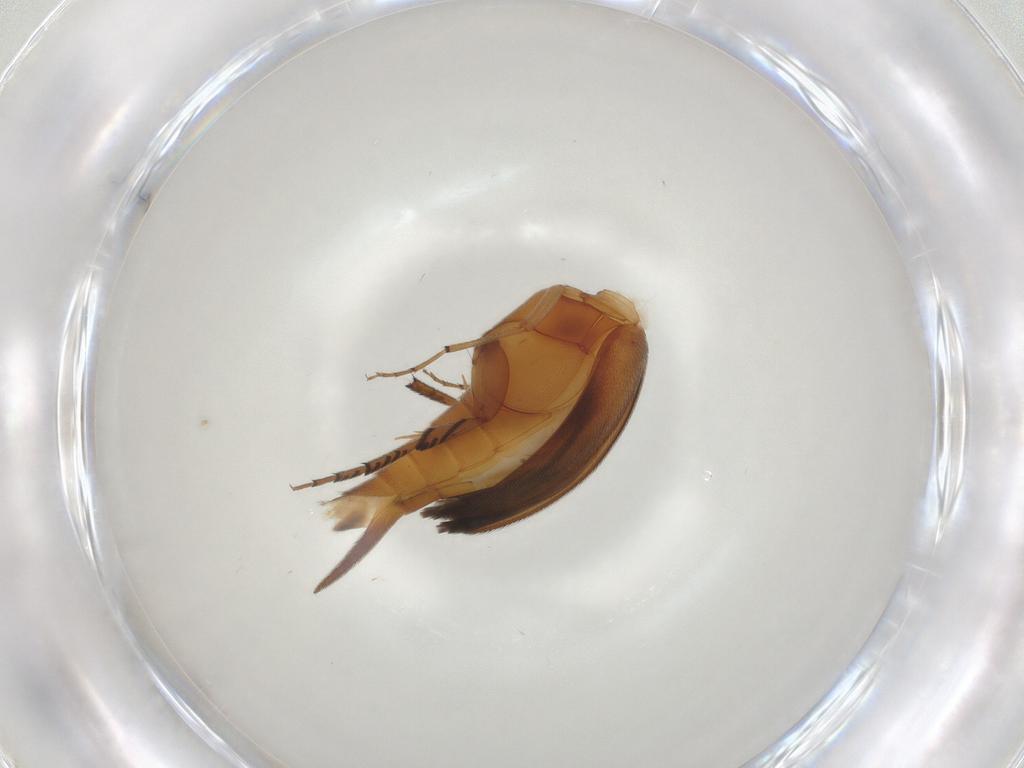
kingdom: Animalia
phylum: Arthropoda
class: Insecta
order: Coleoptera
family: Mordellidae
